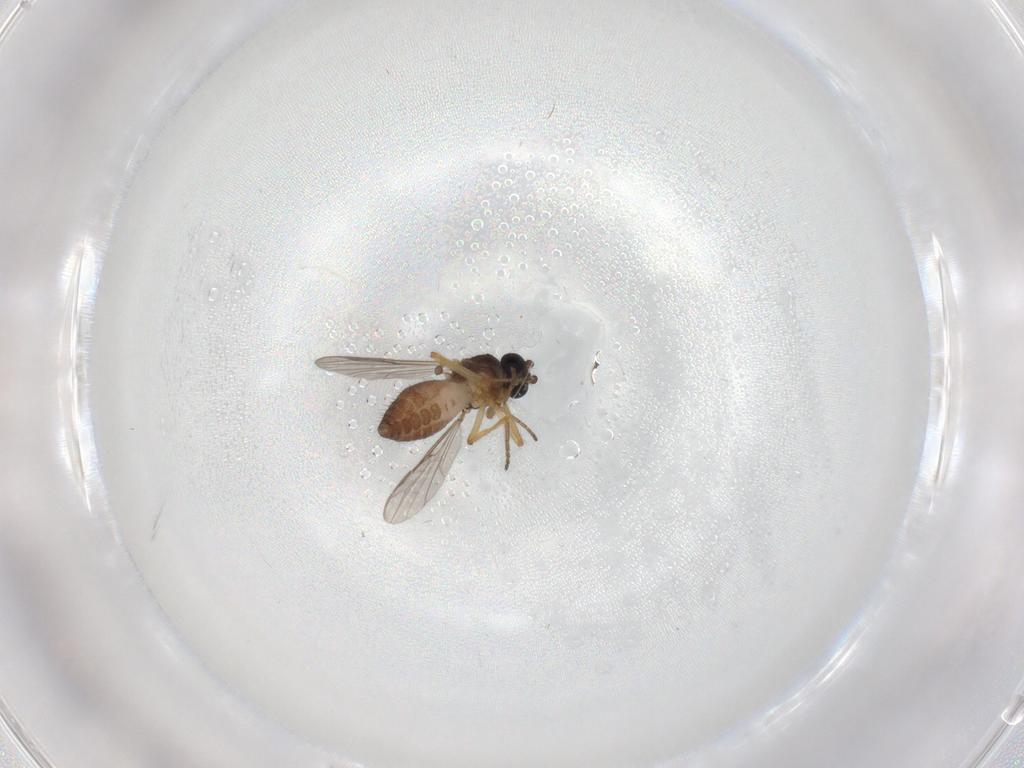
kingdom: Animalia
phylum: Arthropoda
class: Insecta
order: Diptera
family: Ceratopogonidae
